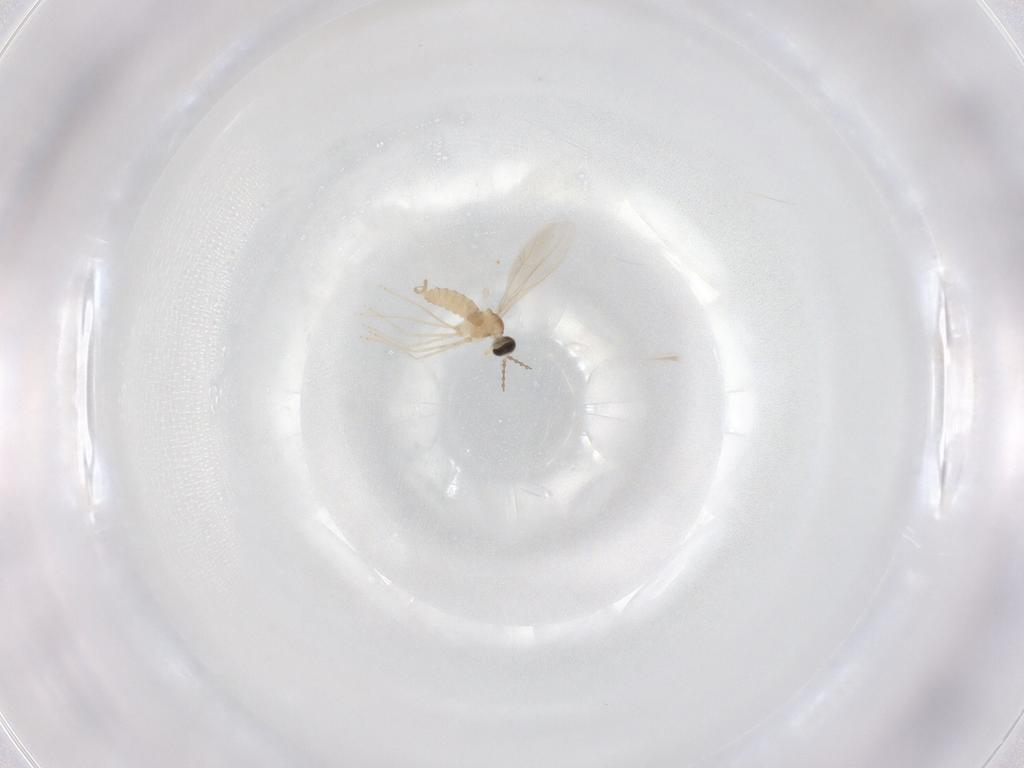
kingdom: Animalia
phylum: Arthropoda
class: Insecta
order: Diptera
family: Cecidomyiidae
